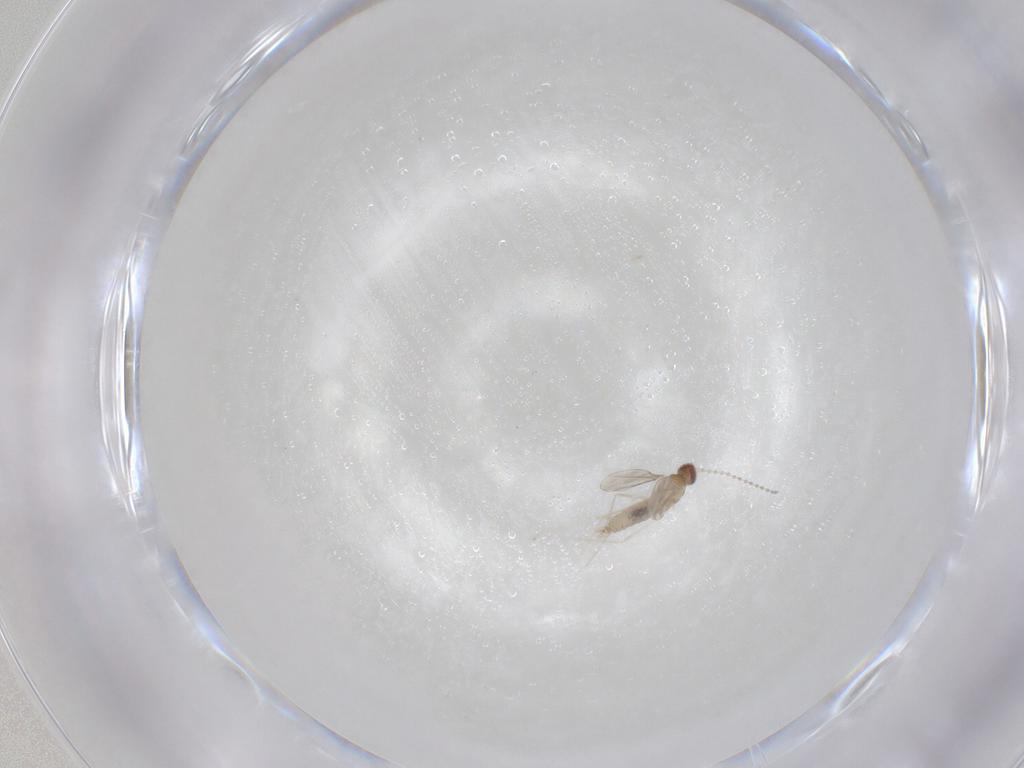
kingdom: Animalia
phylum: Arthropoda
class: Insecta
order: Diptera
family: Cecidomyiidae
